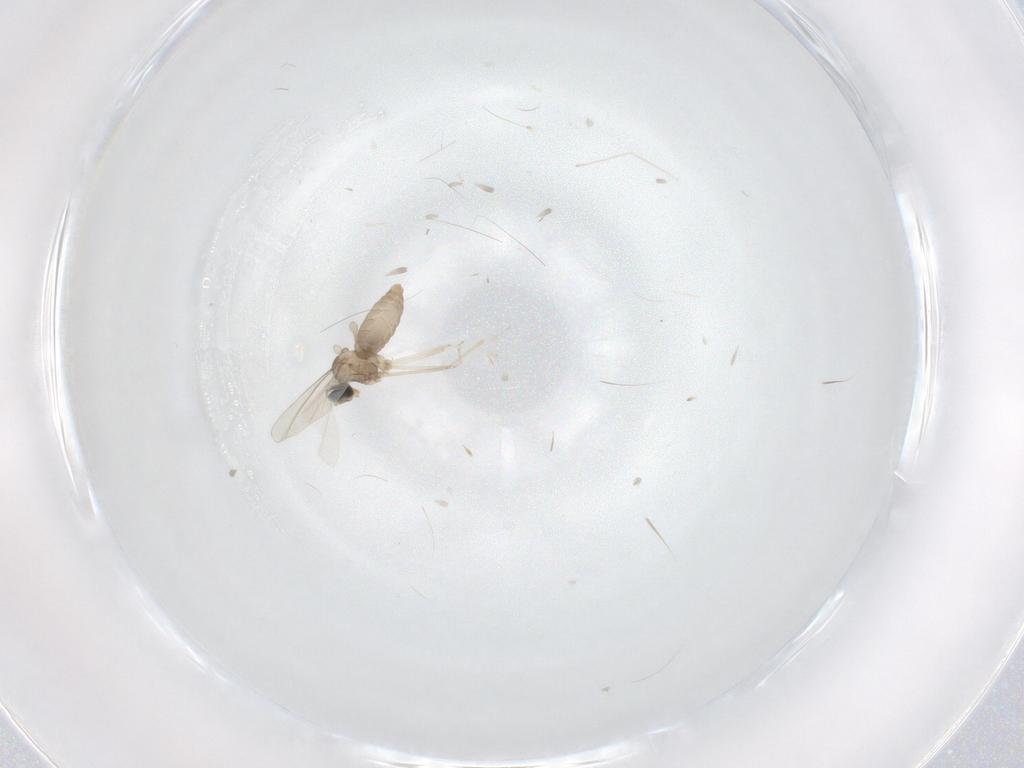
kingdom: Animalia
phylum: Arthropoda
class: Insecta
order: Diptera
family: Cecidomyiidae
